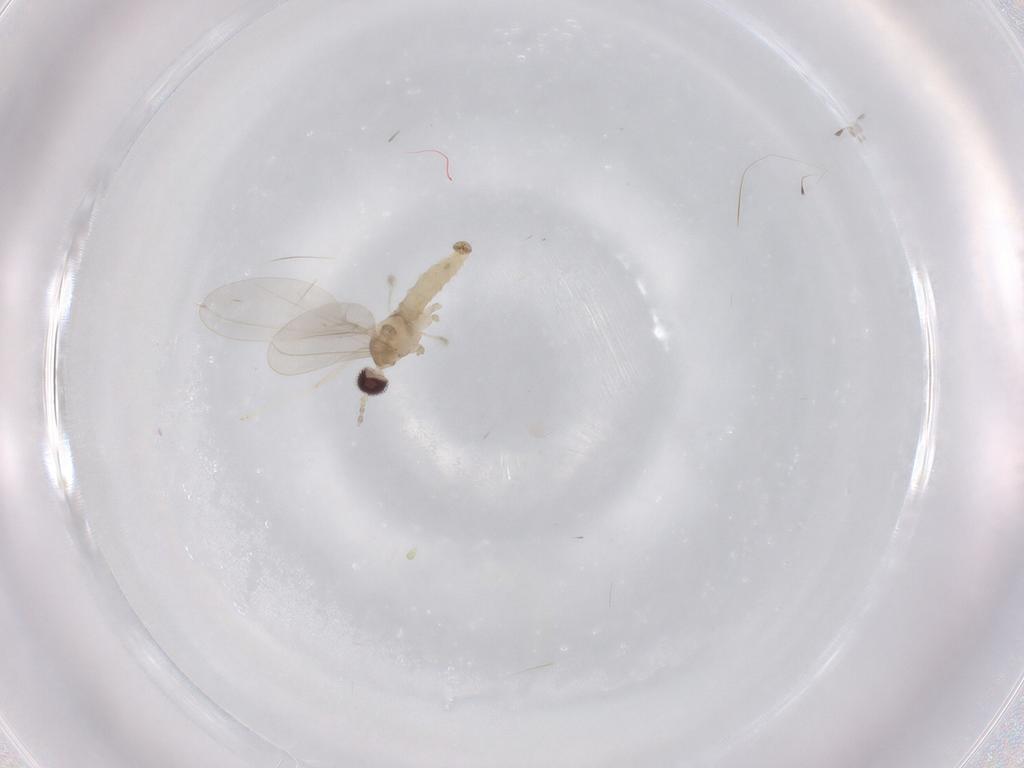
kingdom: Animalia
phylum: Arthropoda
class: Insecta
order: Diptera
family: Cecidomyiidae
